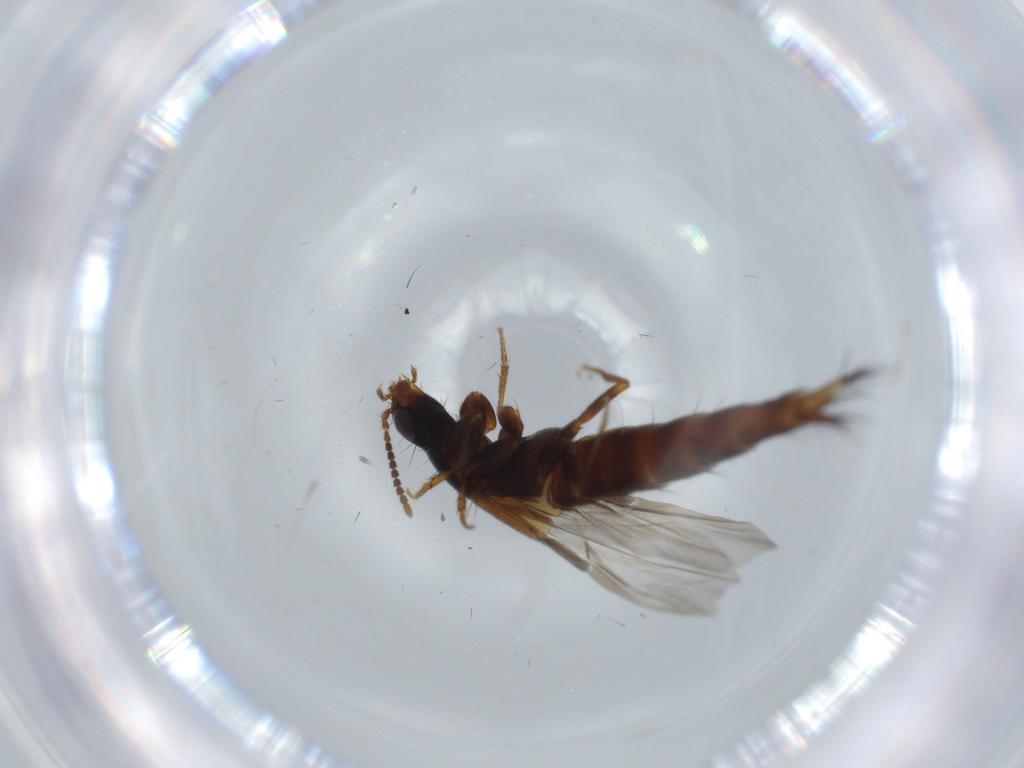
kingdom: Animalia
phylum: Arthropoda
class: Insecta
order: Coleoptera
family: Staphylinidae
